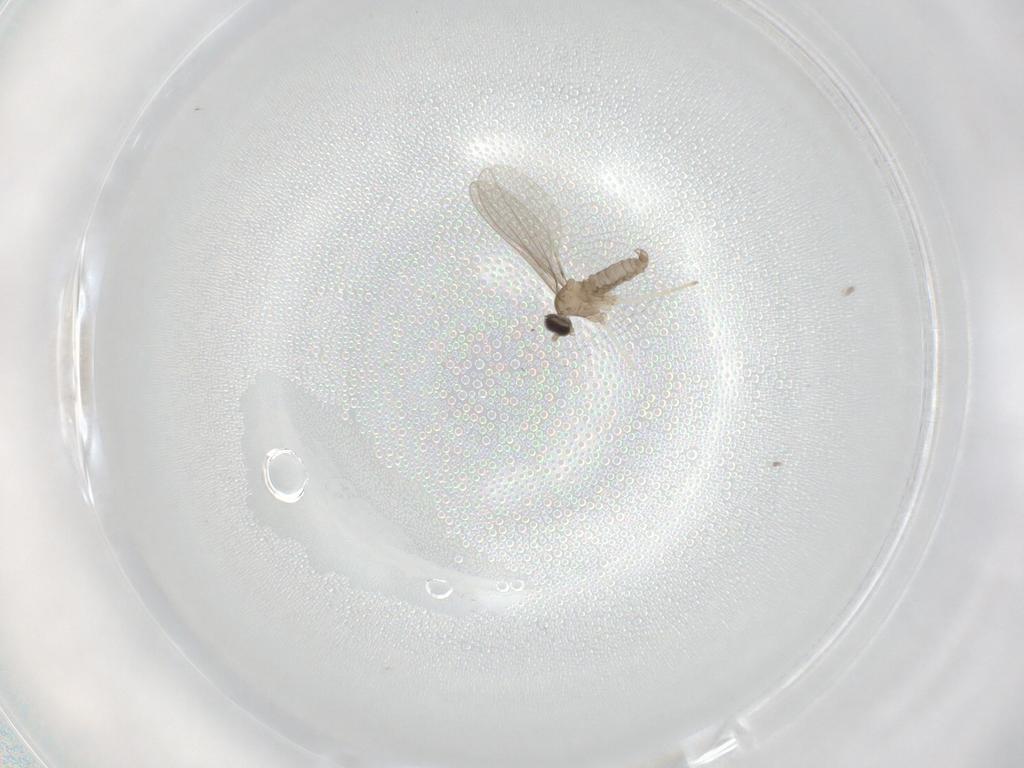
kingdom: Animalia
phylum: Arthropoda
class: Insecta
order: Diptera
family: Cecidomyiidae
